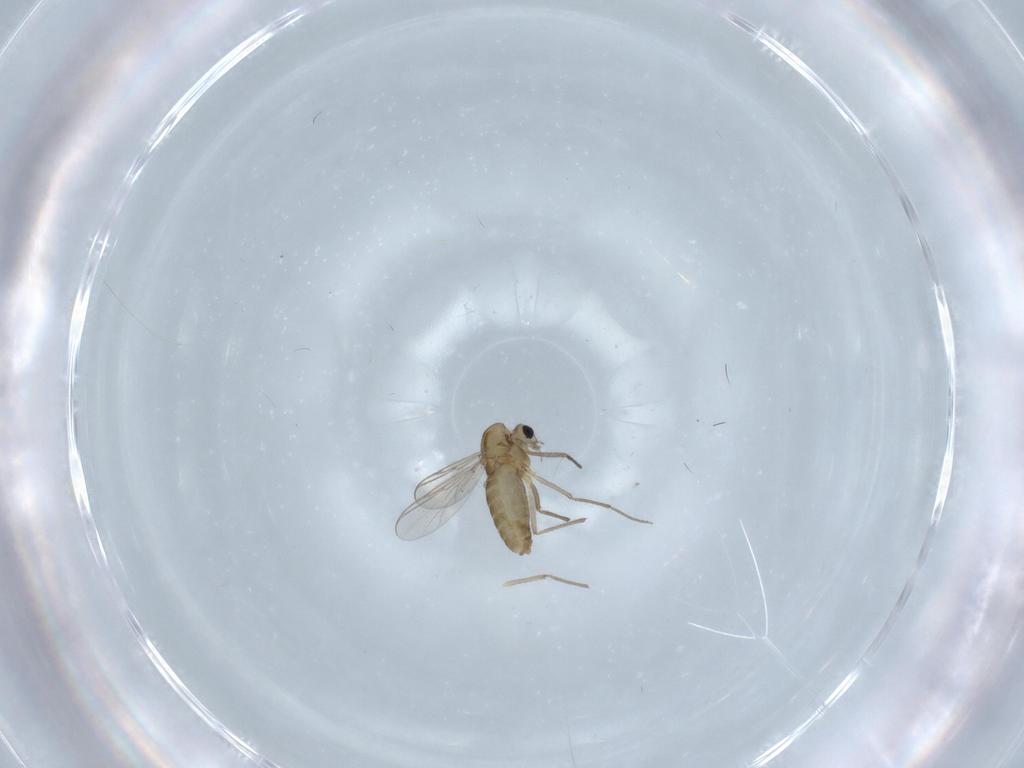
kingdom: Animalia
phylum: Arthropoda
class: Insecta
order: Diptera
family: Chironomidae
